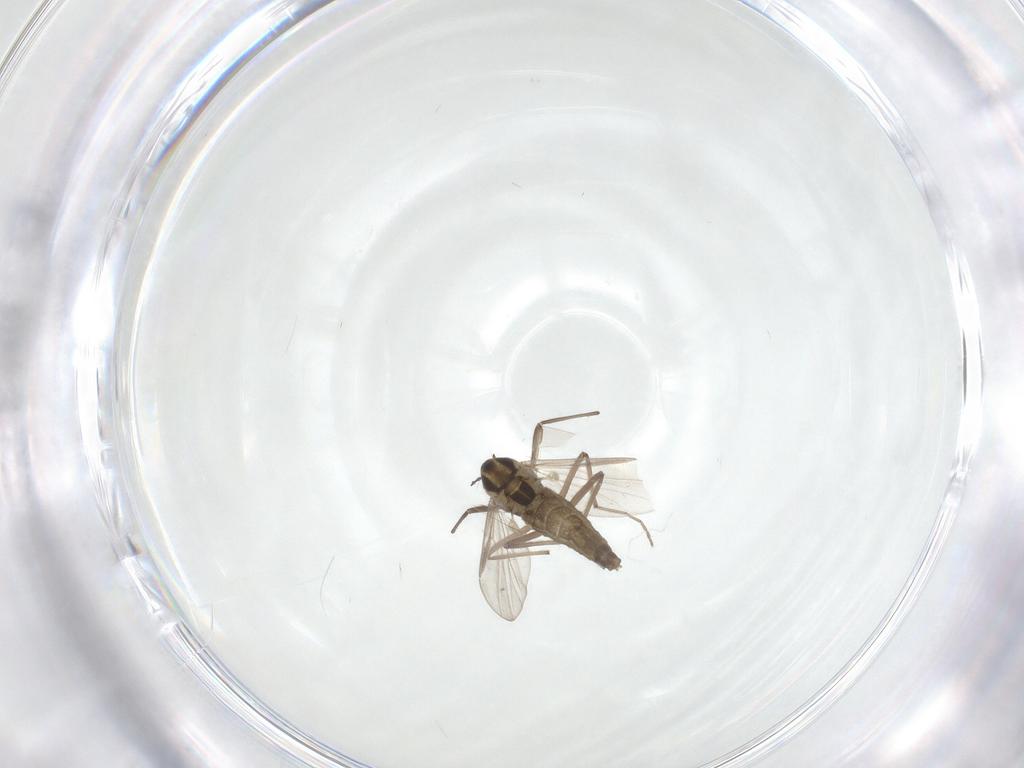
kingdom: Animalia
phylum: Arthropoda
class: Insecta
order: Diptera
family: Chironomidae
